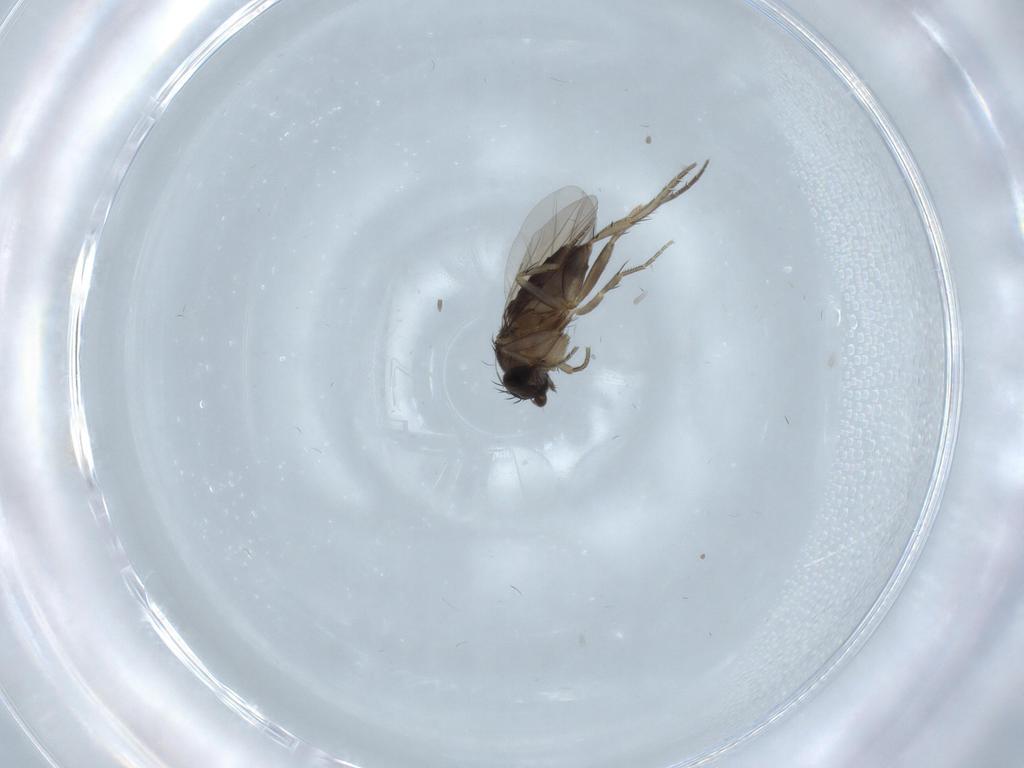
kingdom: Animalia
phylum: Arthropoda
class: Insecta
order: Diptera
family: Phoridae
